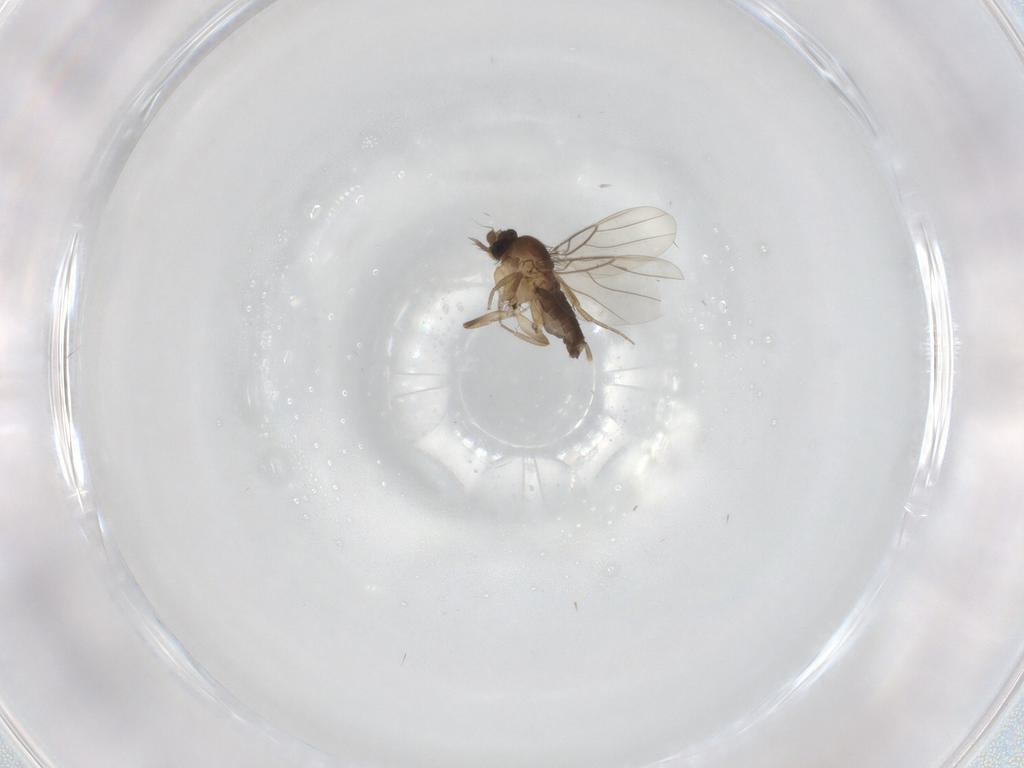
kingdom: Animalia
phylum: Arthropoda
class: Insecta
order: Diptera
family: Phoridae
